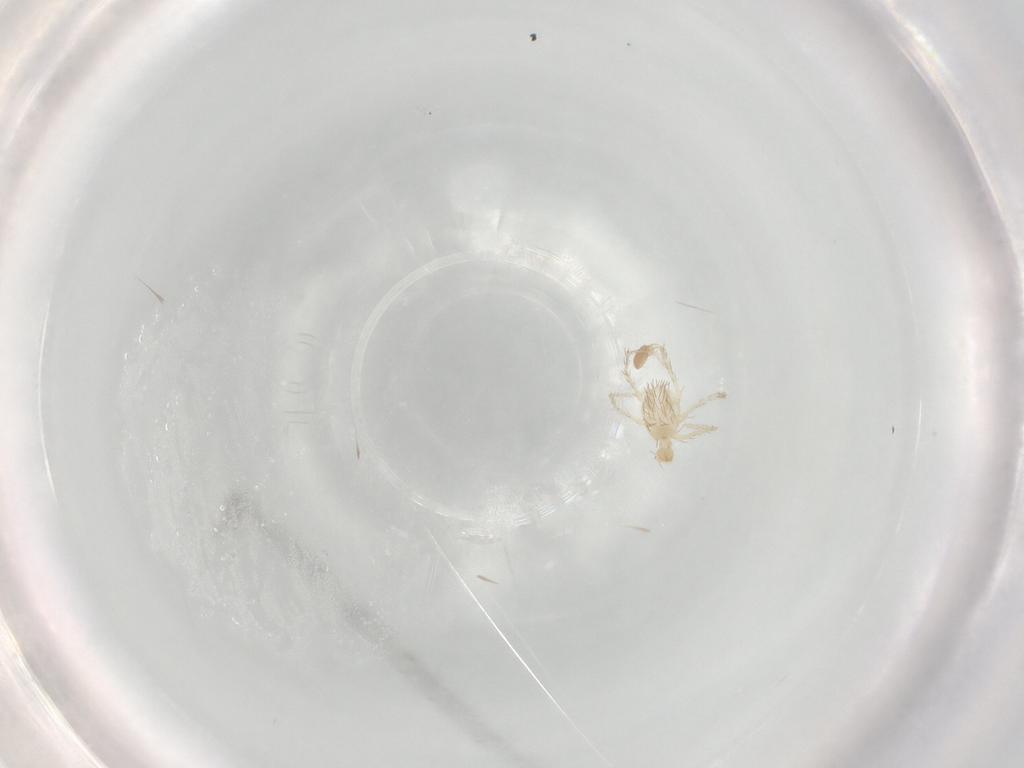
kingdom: Animalia
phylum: Arthropoda
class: Arachnida
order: Trombidiformes
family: Erythraeidae
